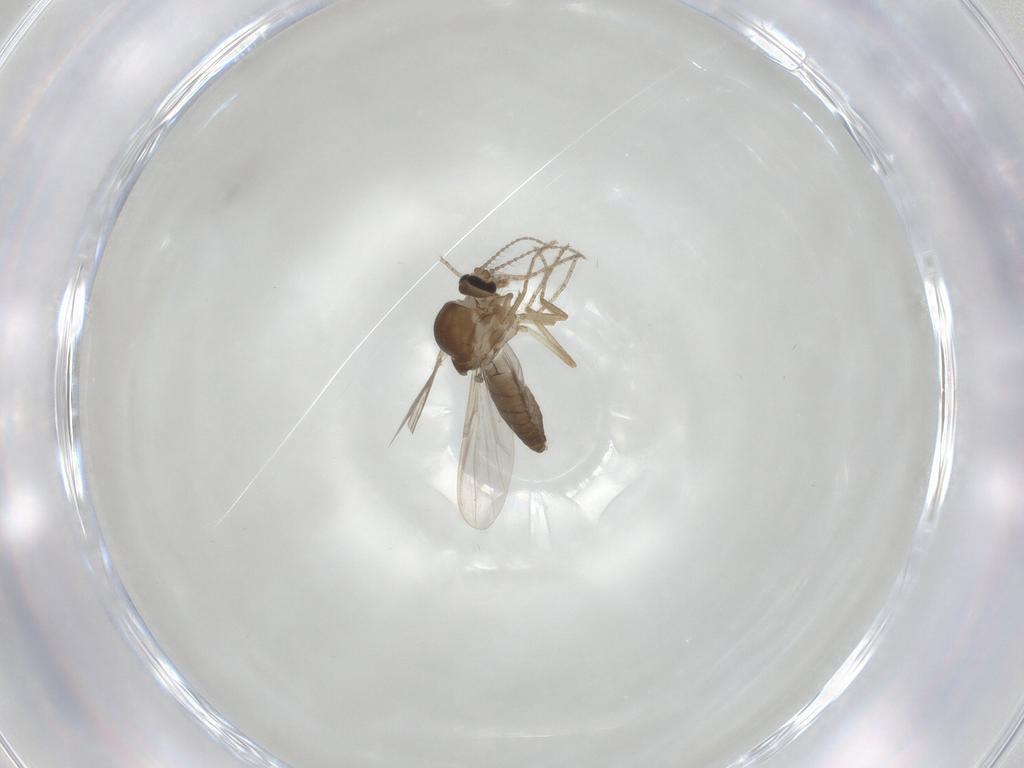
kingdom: Animalia
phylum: Arthropoda
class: Insecta
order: Diptera
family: Ceratopogonidae
